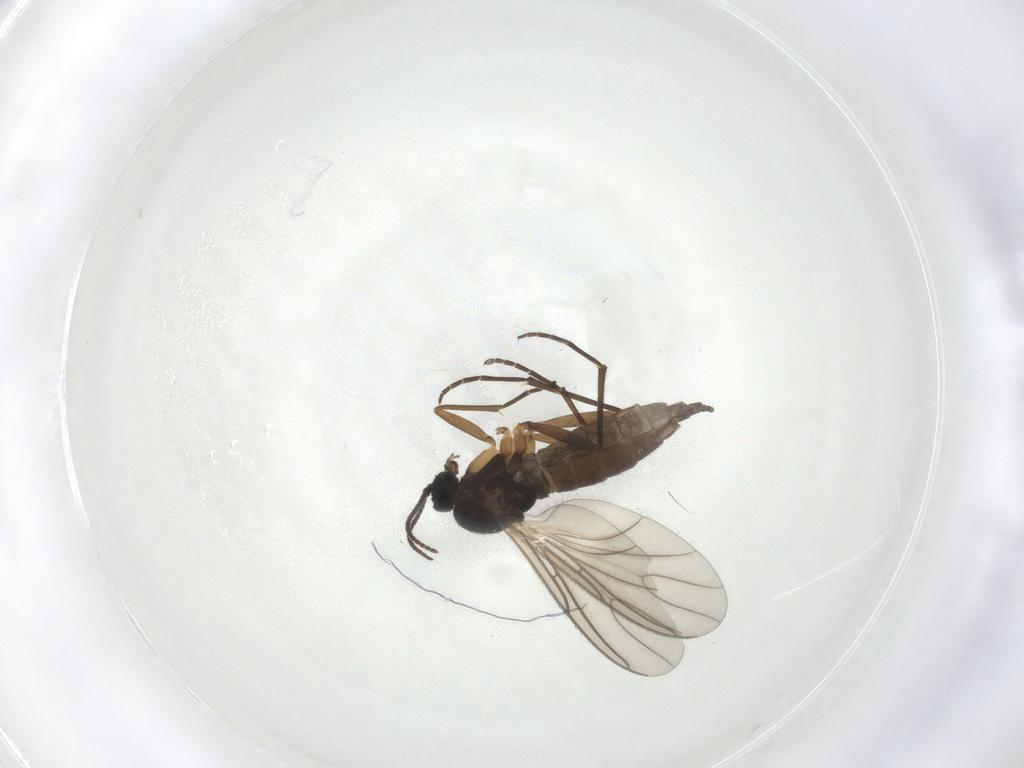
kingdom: Animalia
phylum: Arthropoda
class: Insecta
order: Diptera
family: Sciaridae
